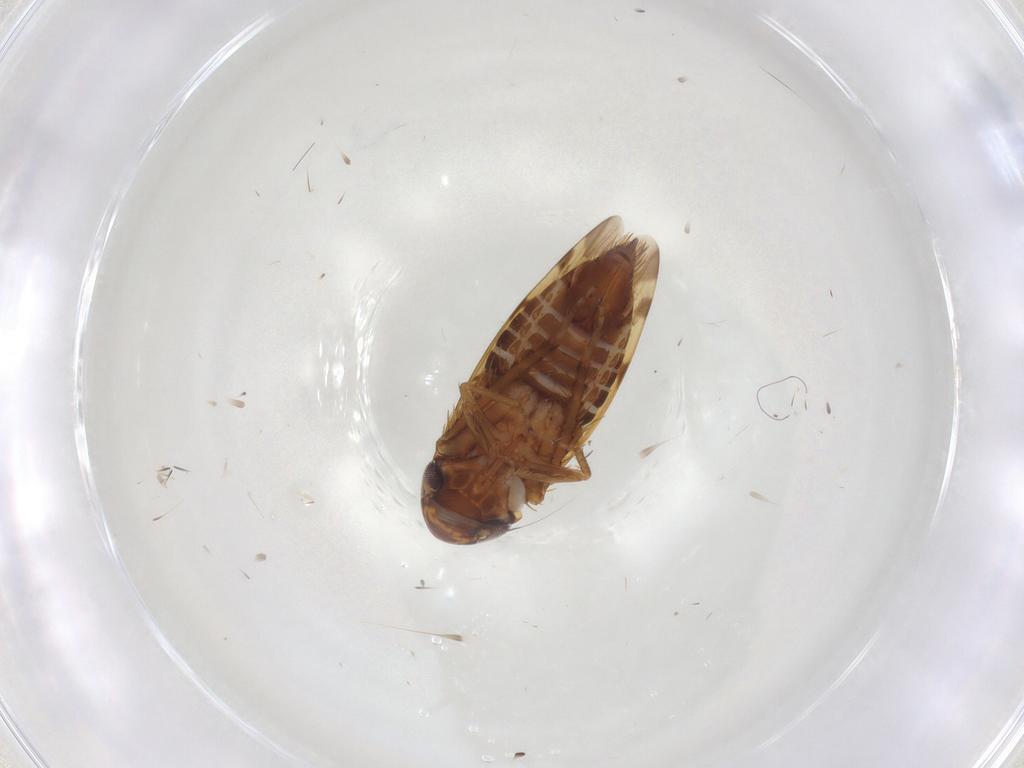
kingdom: Animalia
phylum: Arthropoda
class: Insecta
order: Hemiptera
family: Cicadellidae
